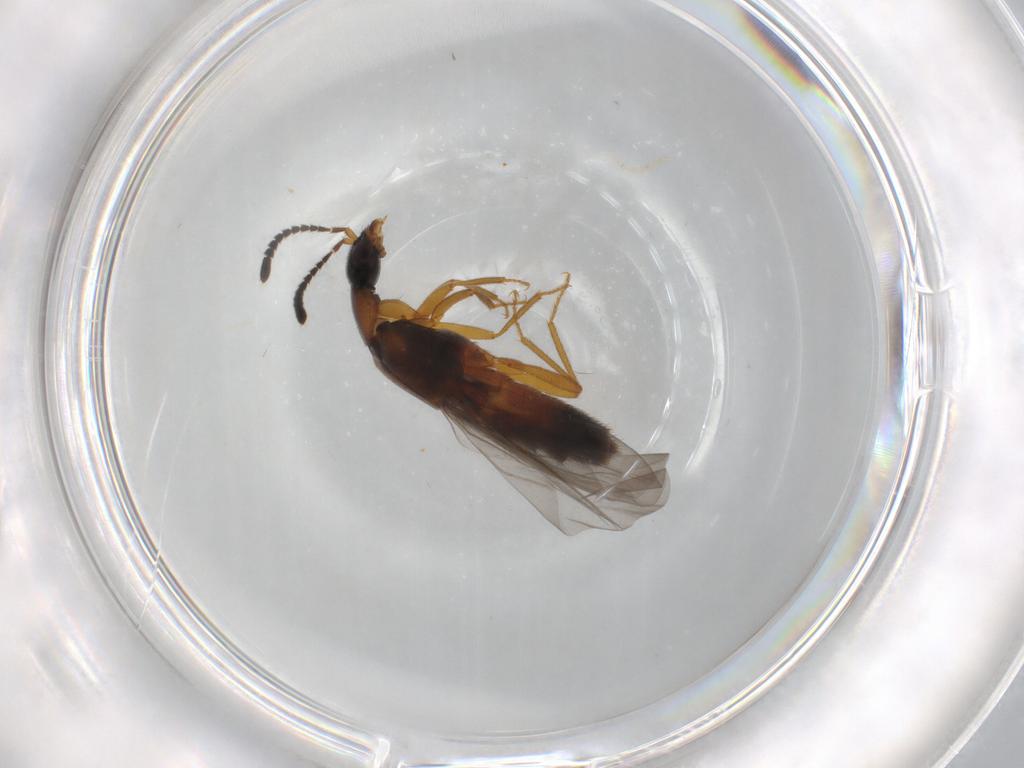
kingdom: Animalia
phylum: Arthropoda
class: Insecta
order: Coleoptera
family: Staphylinidae
